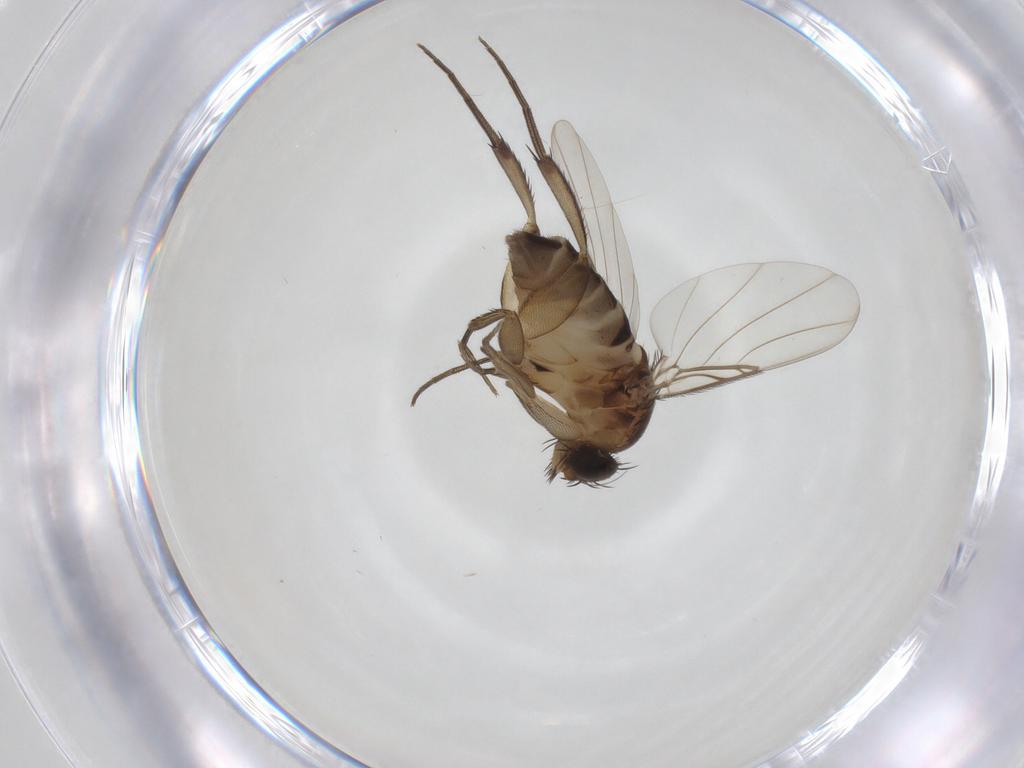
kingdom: Animalia
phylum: Arthropoda
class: Insecta
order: Diptera
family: Phoridae
